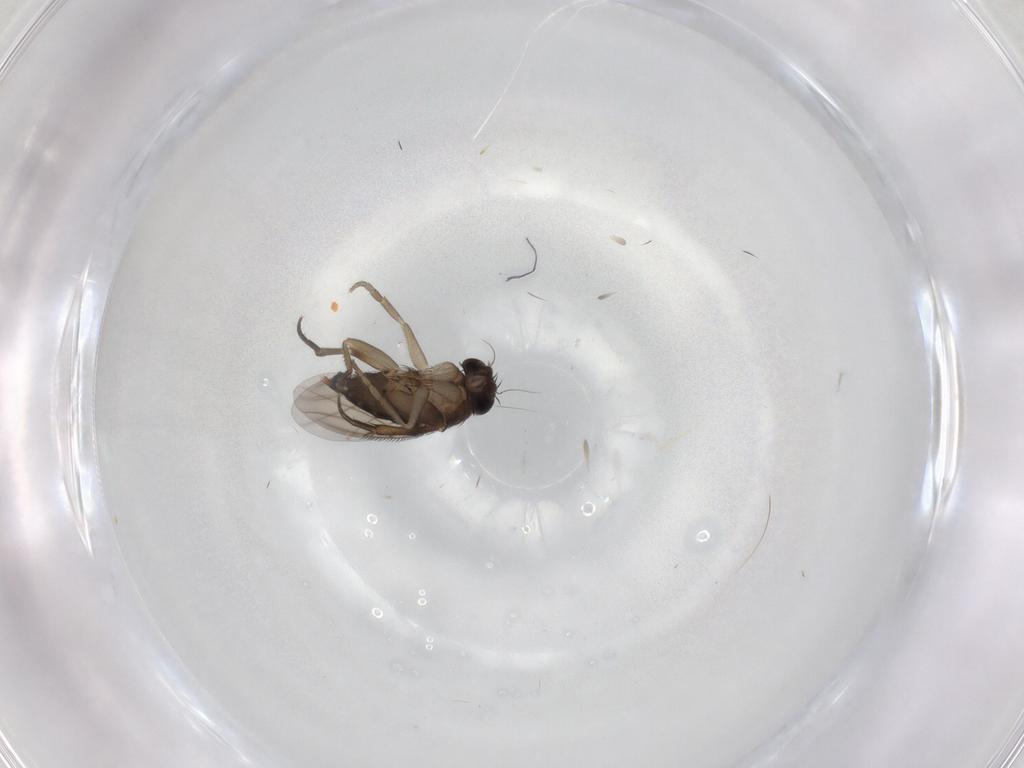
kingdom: Animalia
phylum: Arthropoda
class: Insecta
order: Diptera
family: Phoridae
